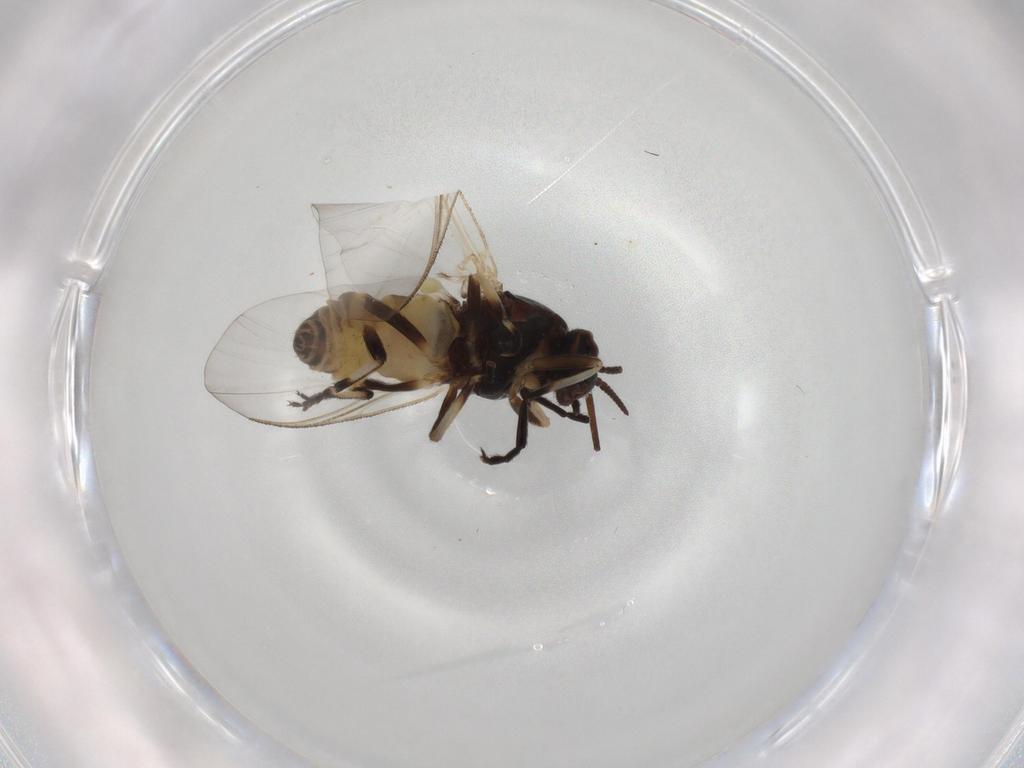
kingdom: Animalia
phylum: Arthropoda
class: Insecta
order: Diptera
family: Sciaridae
